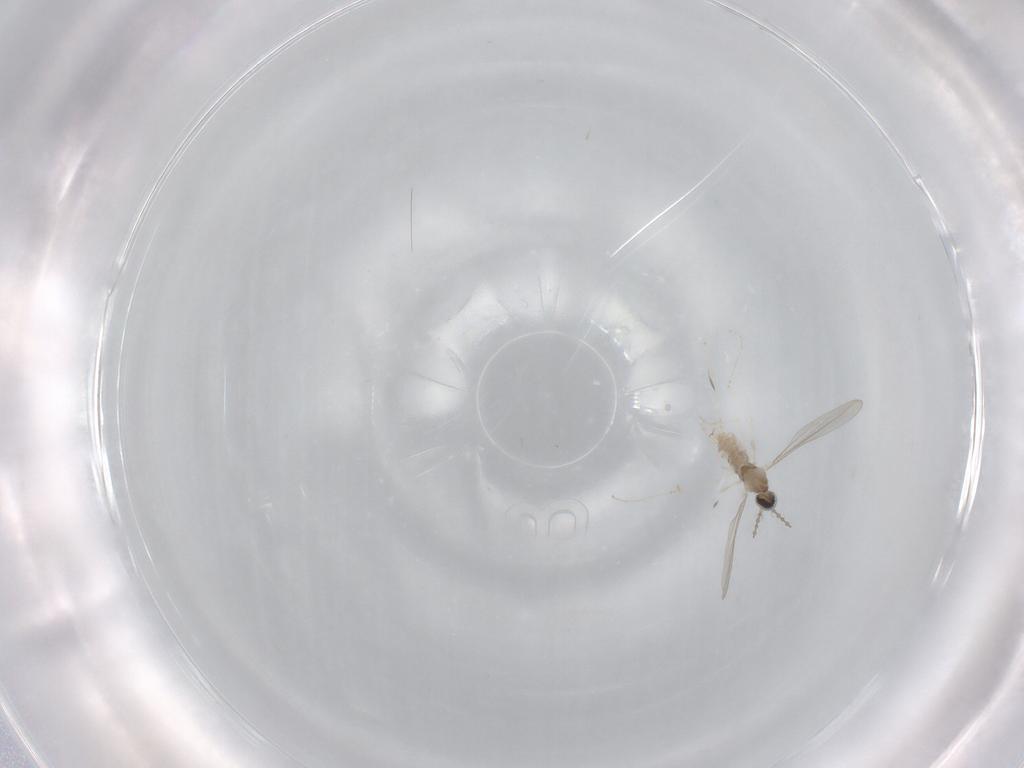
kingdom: Animalia
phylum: Arthropoda
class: Insecta
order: Diptera
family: Cecidomyiidae
